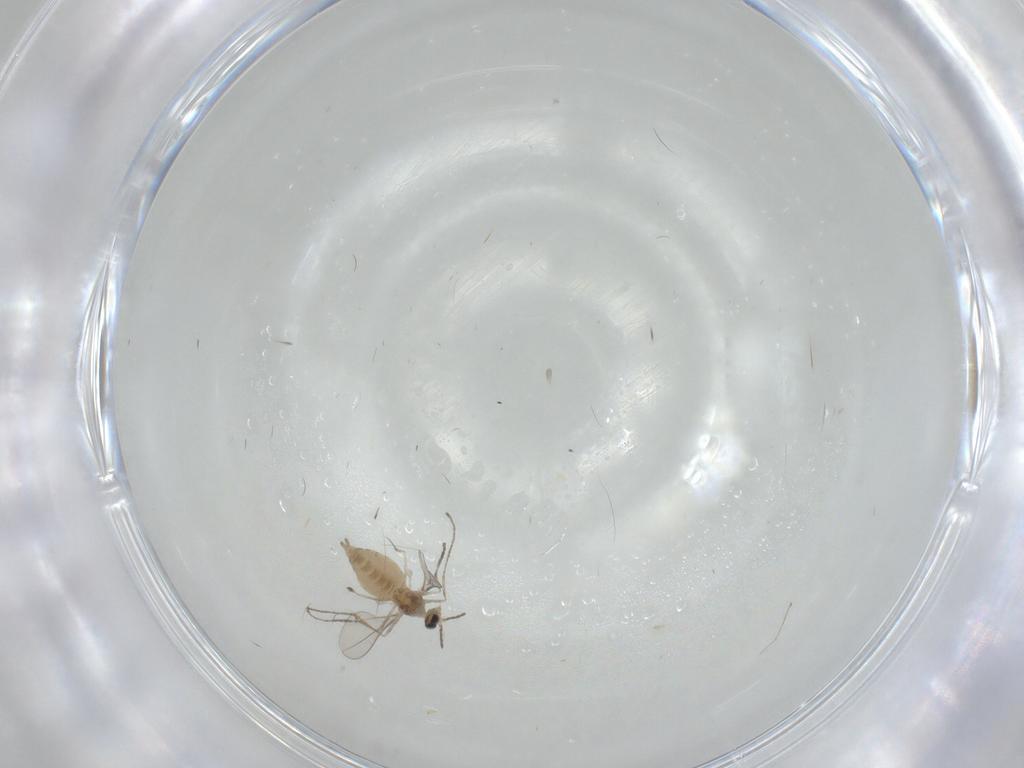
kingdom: Animalia
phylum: Arthropoda
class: Insecta
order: Diptera
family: Cecidomyiidae
